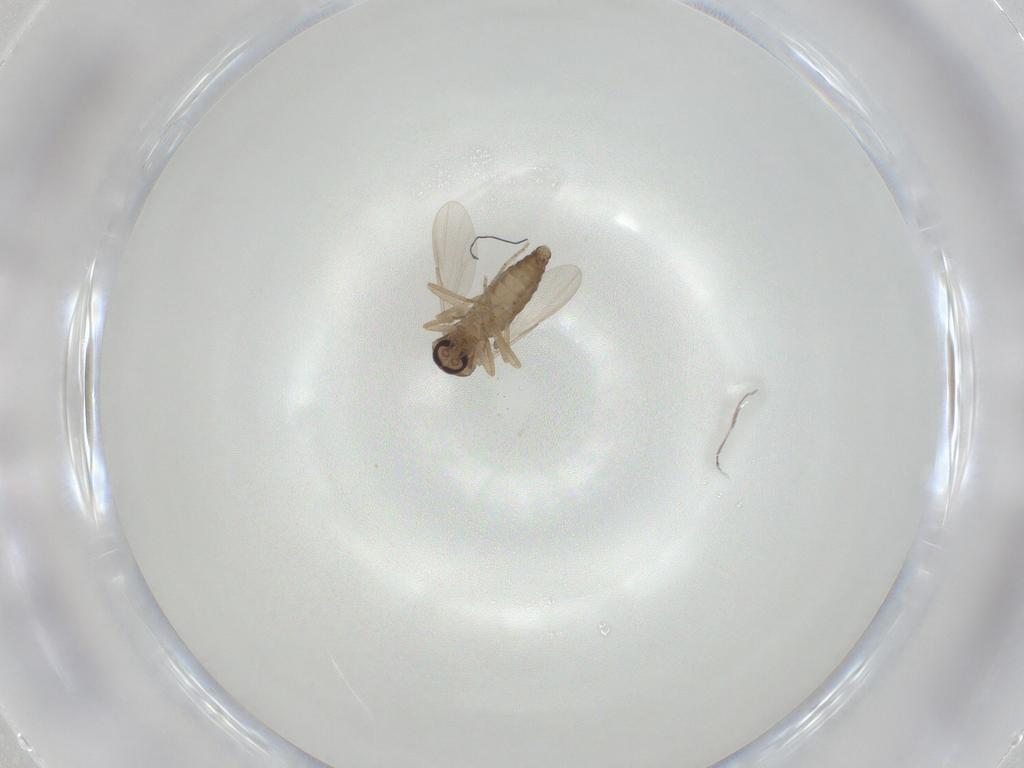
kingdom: Animalia
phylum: Arthropoda
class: Insecta
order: Diptera
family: Ceratopogonidae
